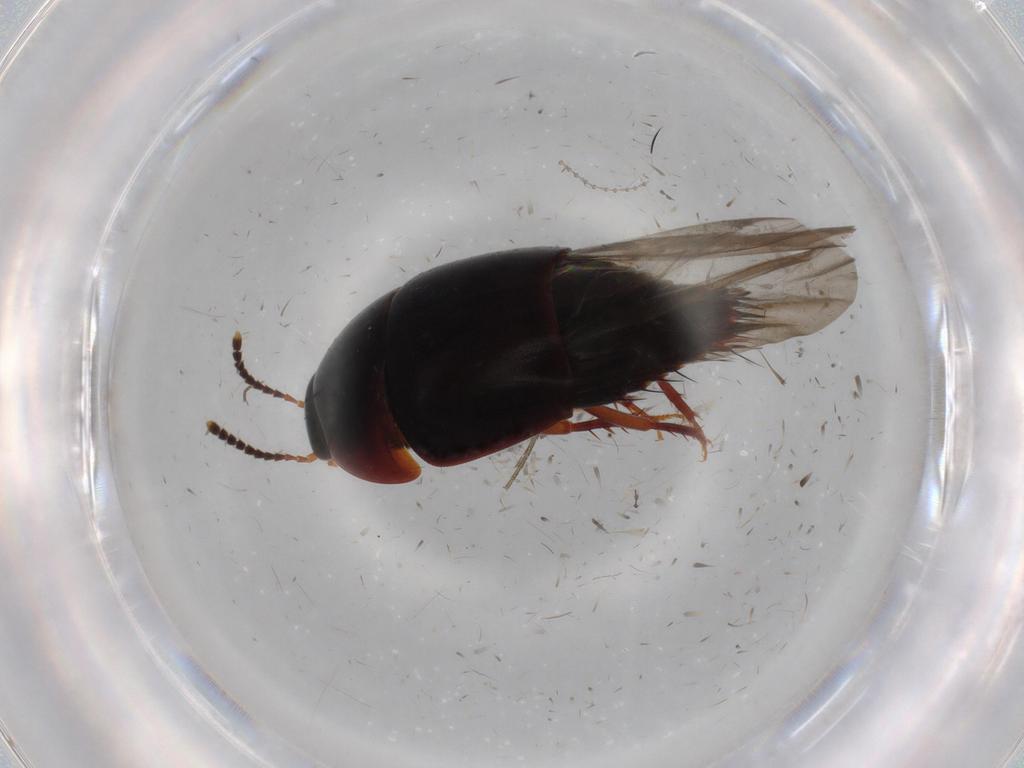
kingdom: Animalia
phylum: Arthropoda
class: Insecta
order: Coleoptera
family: Staphylinidae
